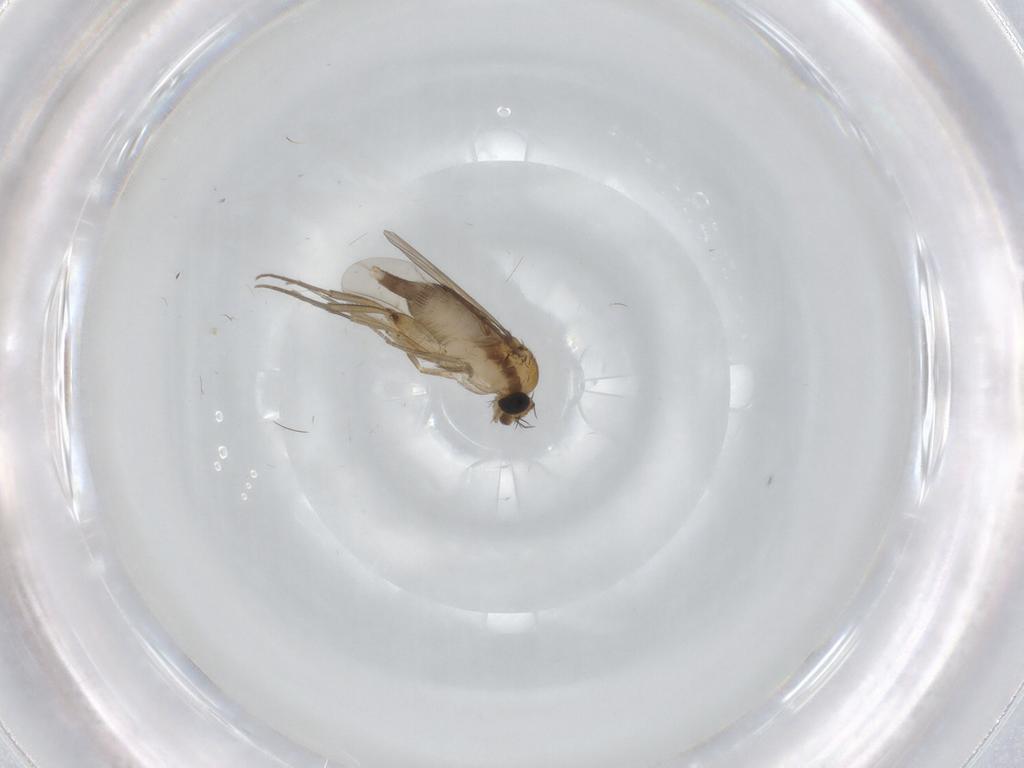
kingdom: Animalia
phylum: Arthropoda
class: Insecta
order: Diptera
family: Phoridae
